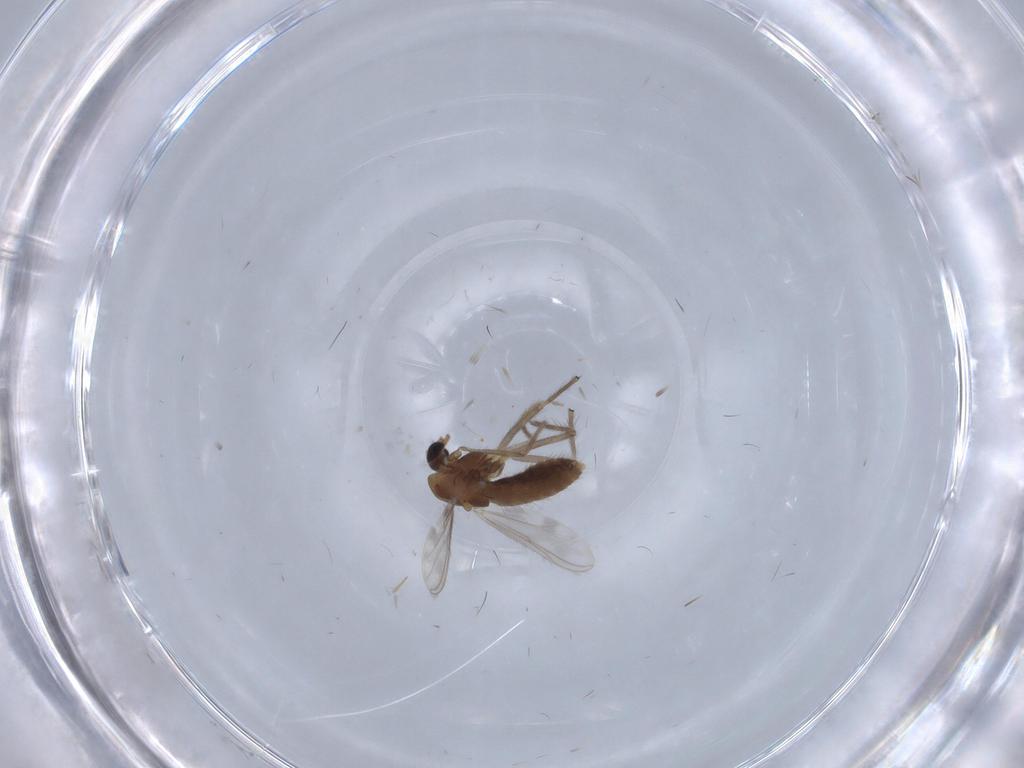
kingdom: Animalia
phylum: Arthropoda
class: Insecta
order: Diptera
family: Chironomidae
